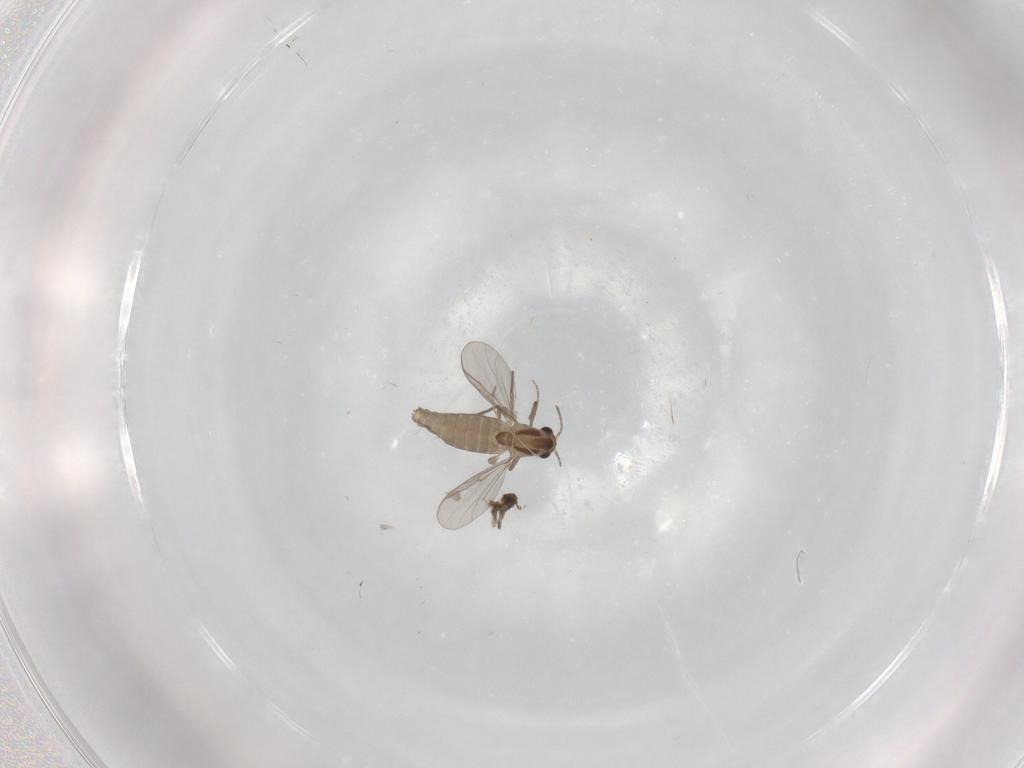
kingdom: Animalia
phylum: Arthropoda
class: Insecta
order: Diptera
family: Chironomidae
